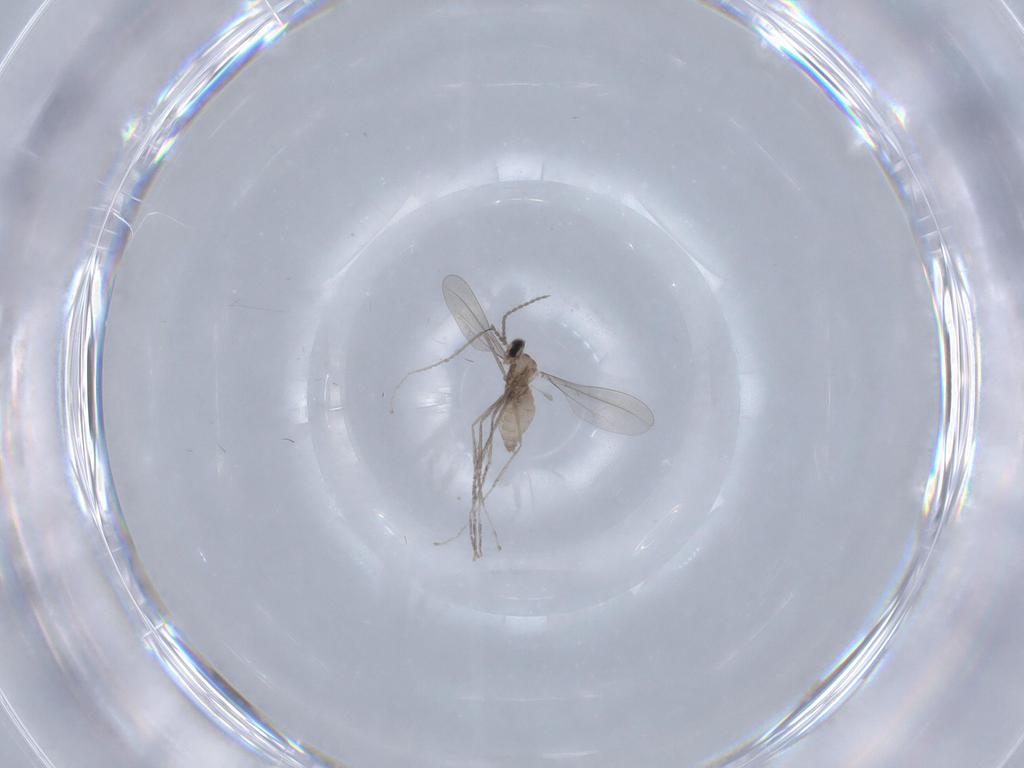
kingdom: Animalia
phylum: Arthropoda
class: Insecta
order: Diptera
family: Cecidomyiidae
